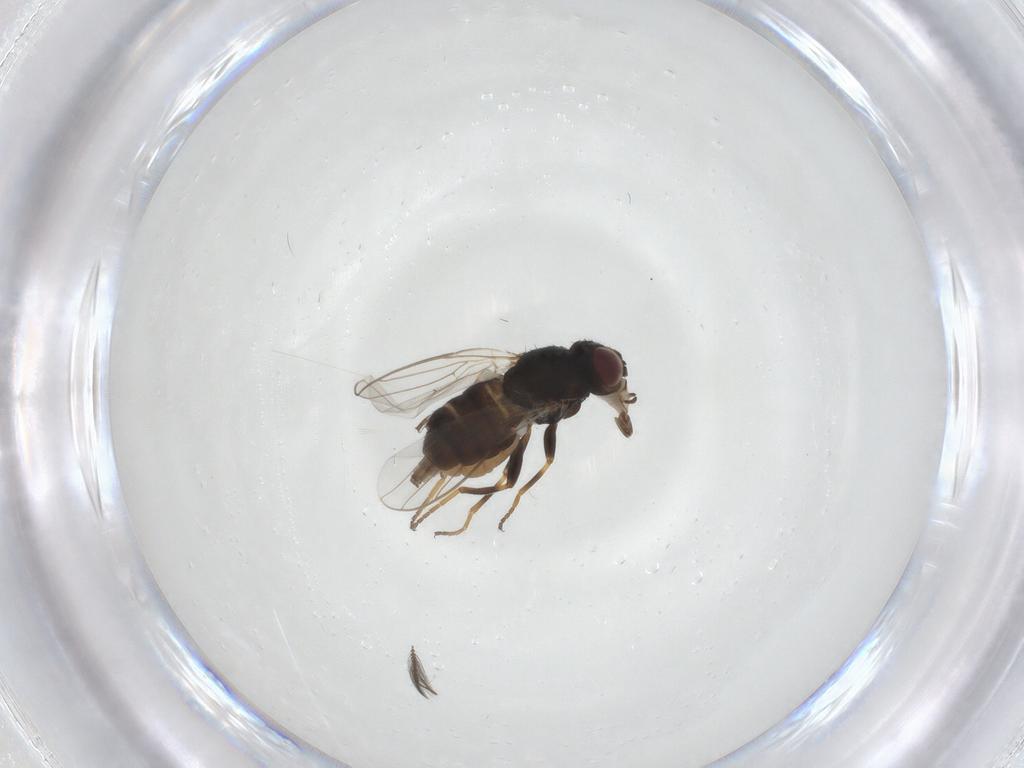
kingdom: Animalia
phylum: Arthropoda
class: Insecta
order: Diptera
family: Chloropidae
